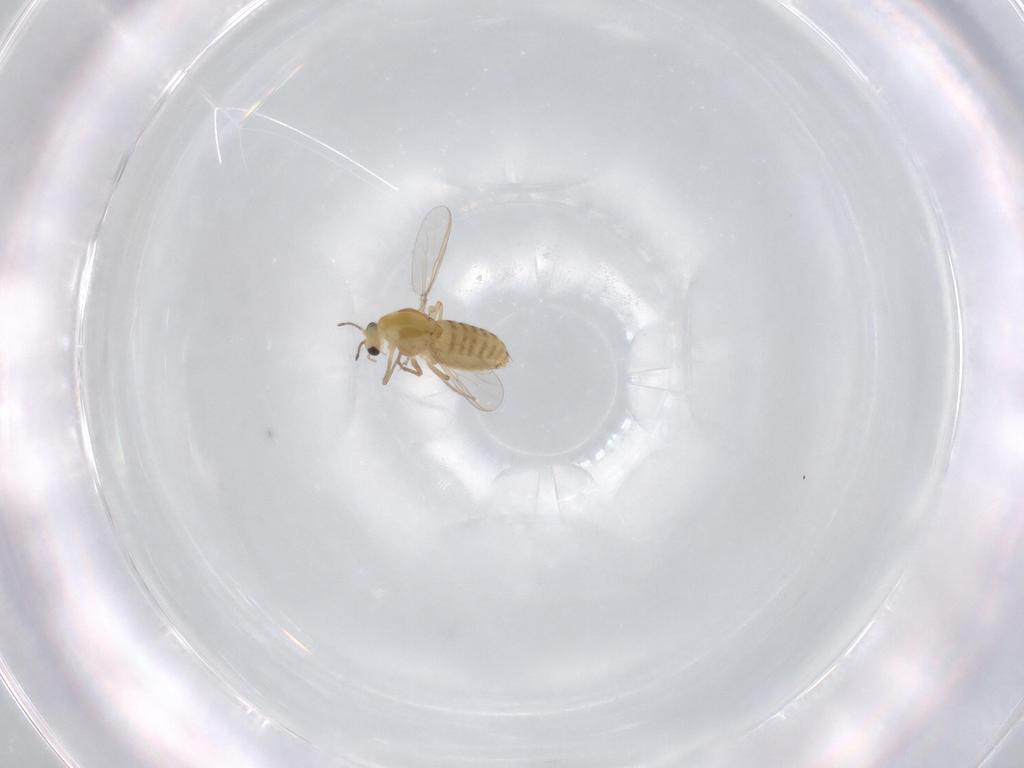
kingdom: Animalia
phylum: Arthropoda
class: Insecta
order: Diptera
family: Chironomidae
